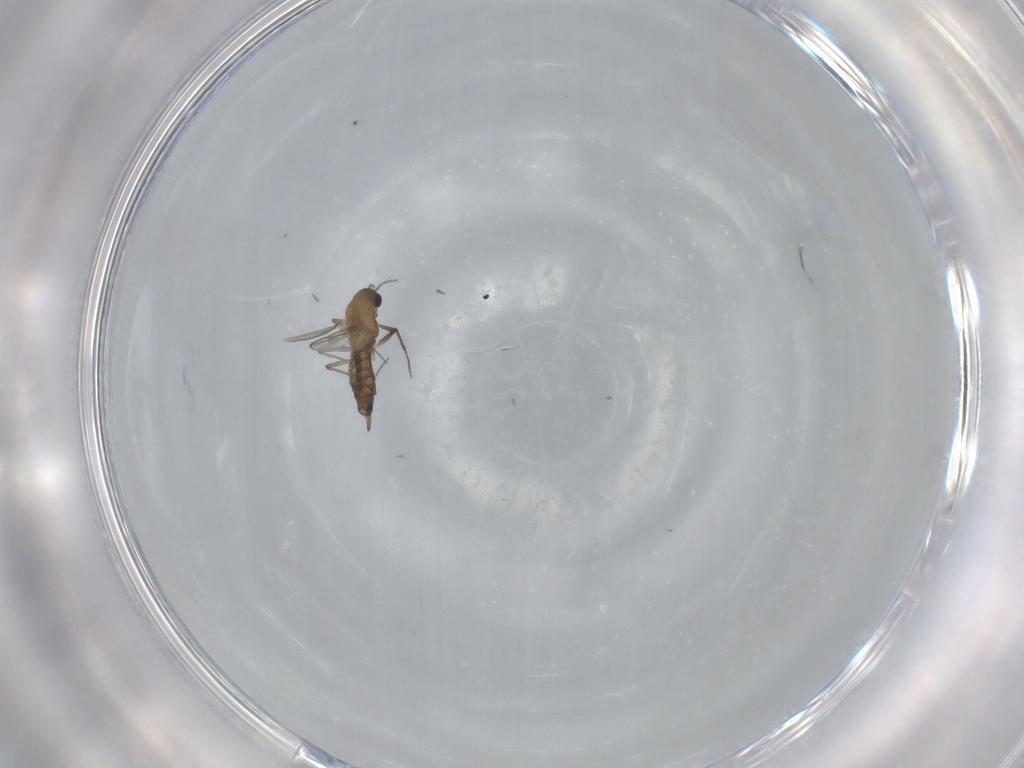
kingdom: Animalia
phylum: Arthropoda
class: Insecta
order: Diptera
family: Chironomidae
